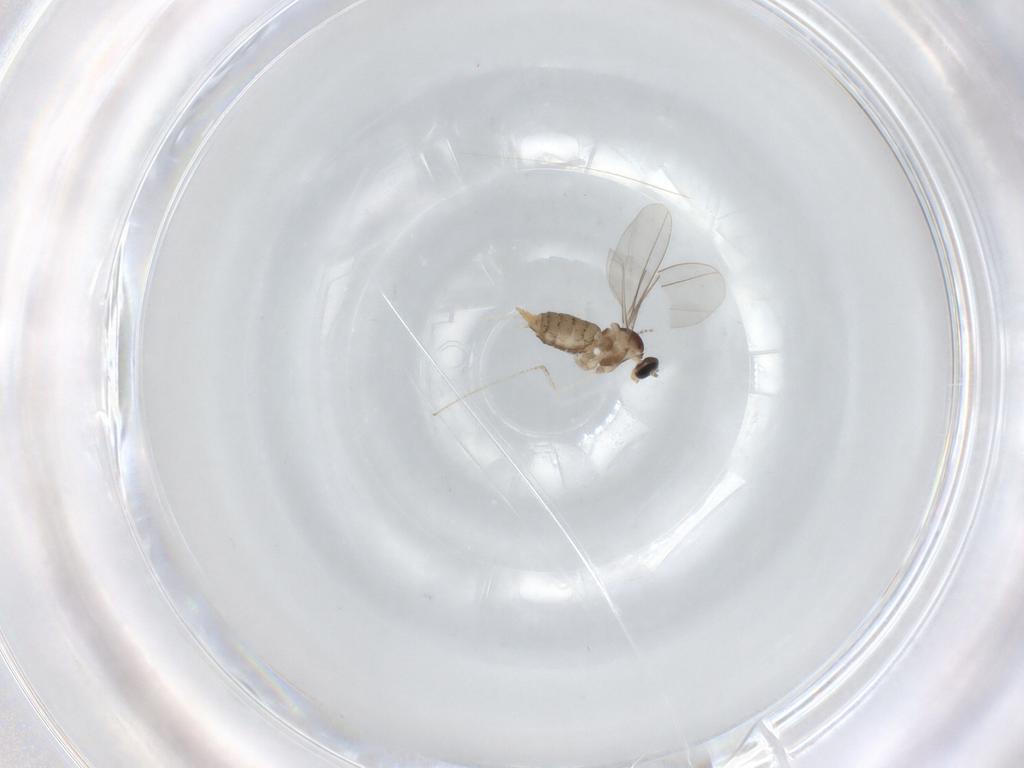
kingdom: Animalia
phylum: Arthropoda
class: Insecta
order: Diptera
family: Cecidomyiidae
